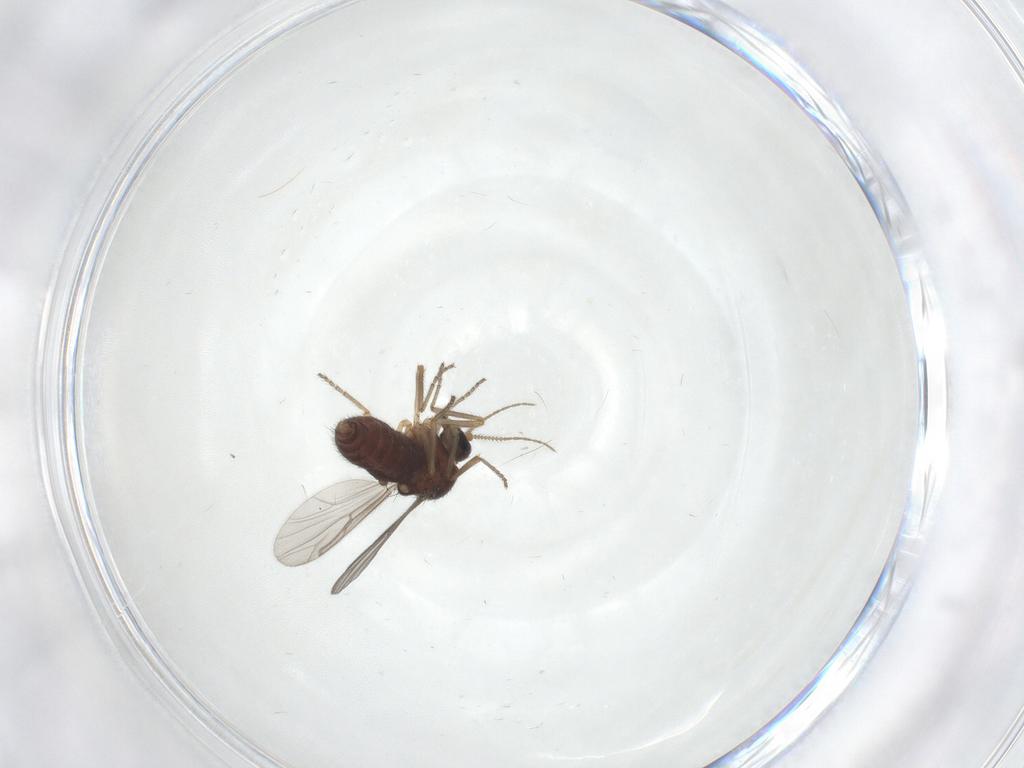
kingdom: Animalia
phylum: Arthropoda
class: Insecta
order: Diptera
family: Ceratopogonidae
